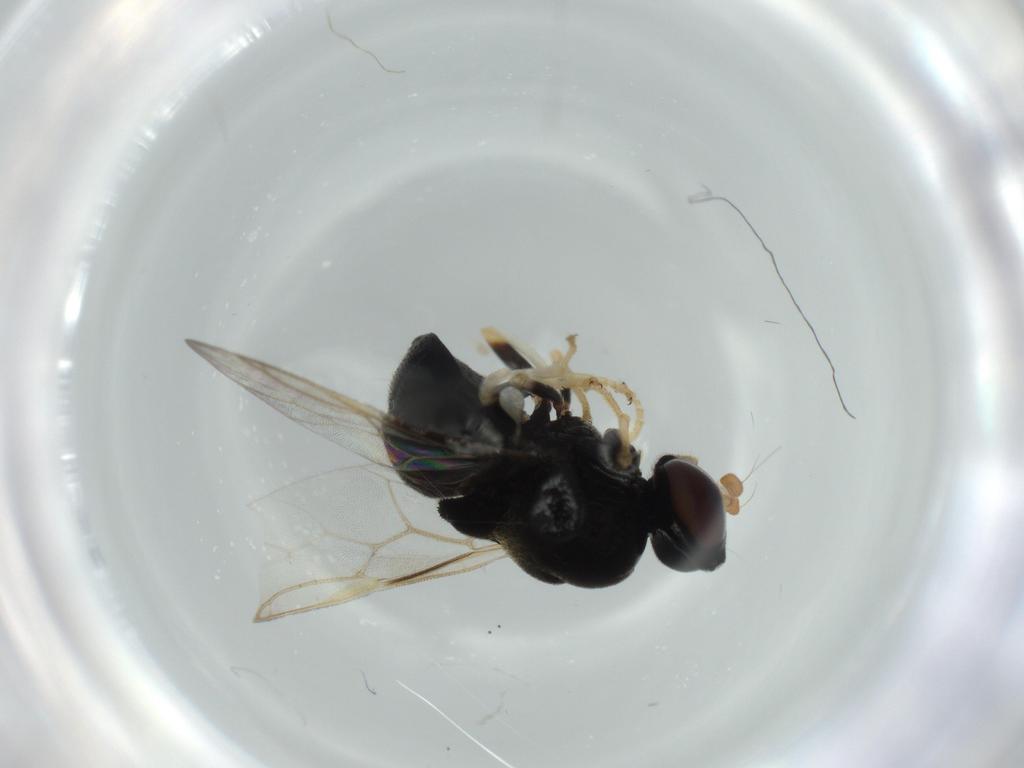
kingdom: Animalia
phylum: Arthropoda
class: Insecta
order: Diptera
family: Stratiomyidae
